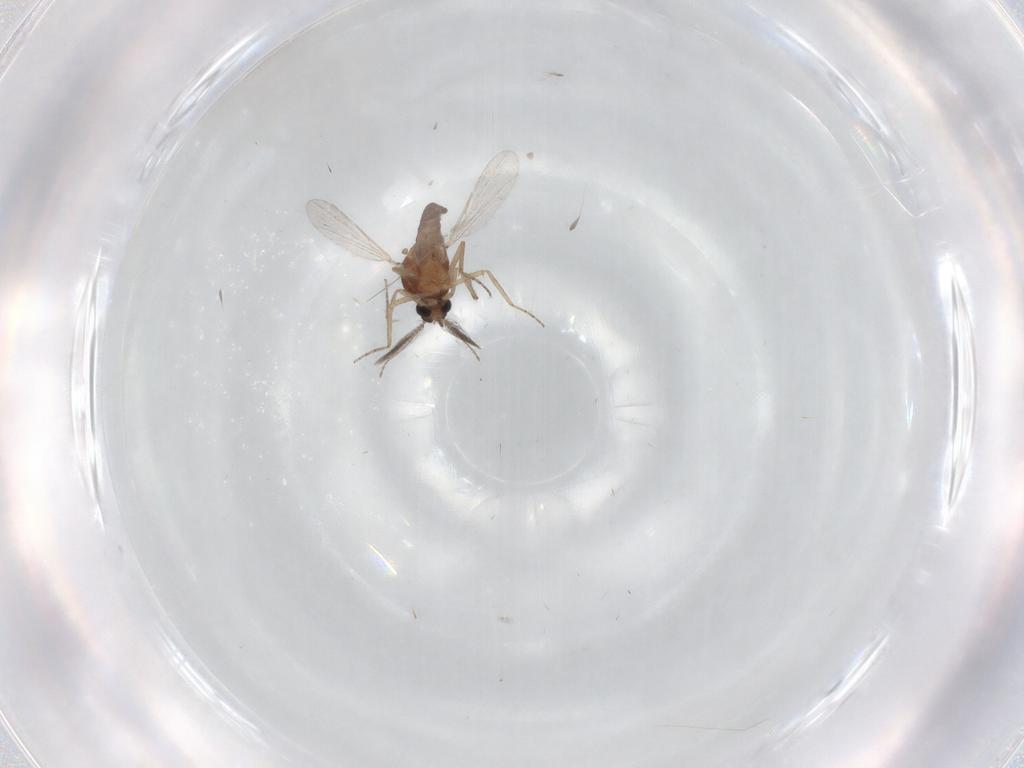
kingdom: Animalia
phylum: Arthropoda
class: Insecta
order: Diptera
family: Ceratopogonidae
